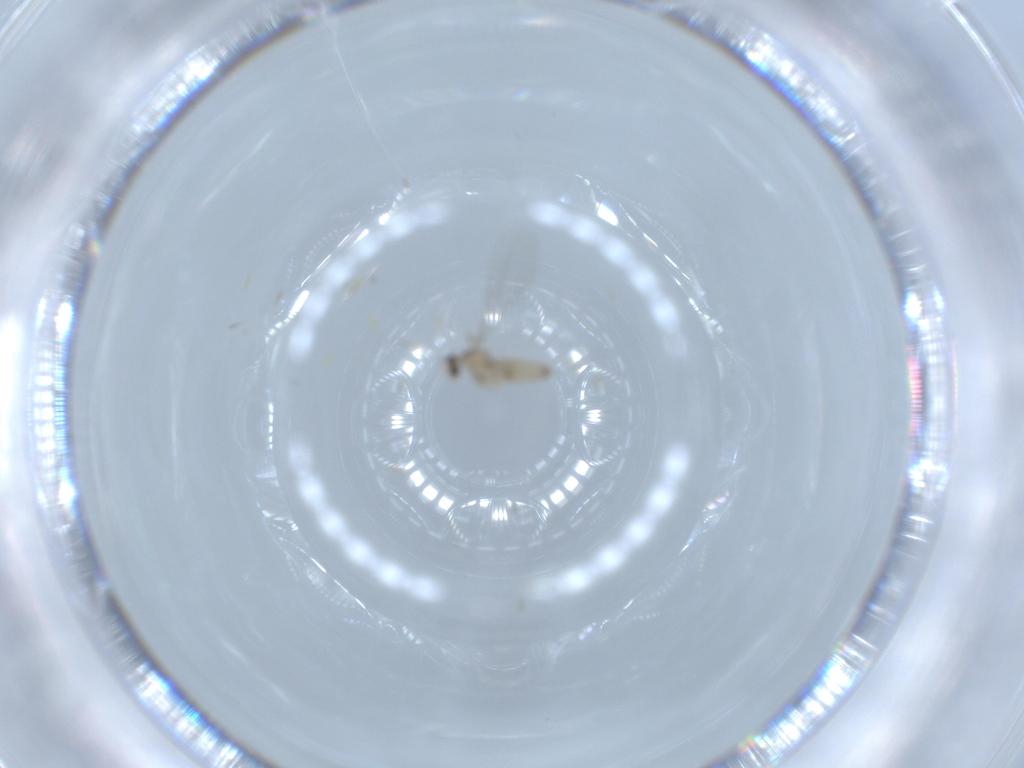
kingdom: Animalia
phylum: Arthropoda
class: Insecta
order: Diptera
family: Cecidomyiidae
